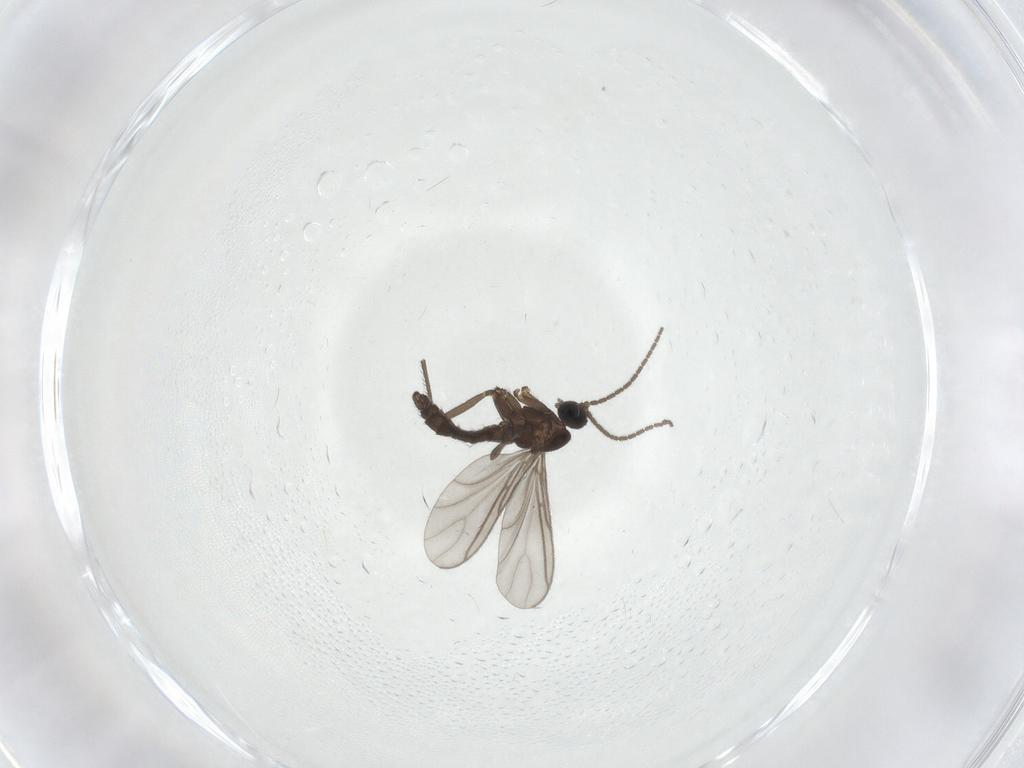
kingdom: Animalia
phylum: Arthropoda
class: Insecta
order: Diptera
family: Sciaridae
